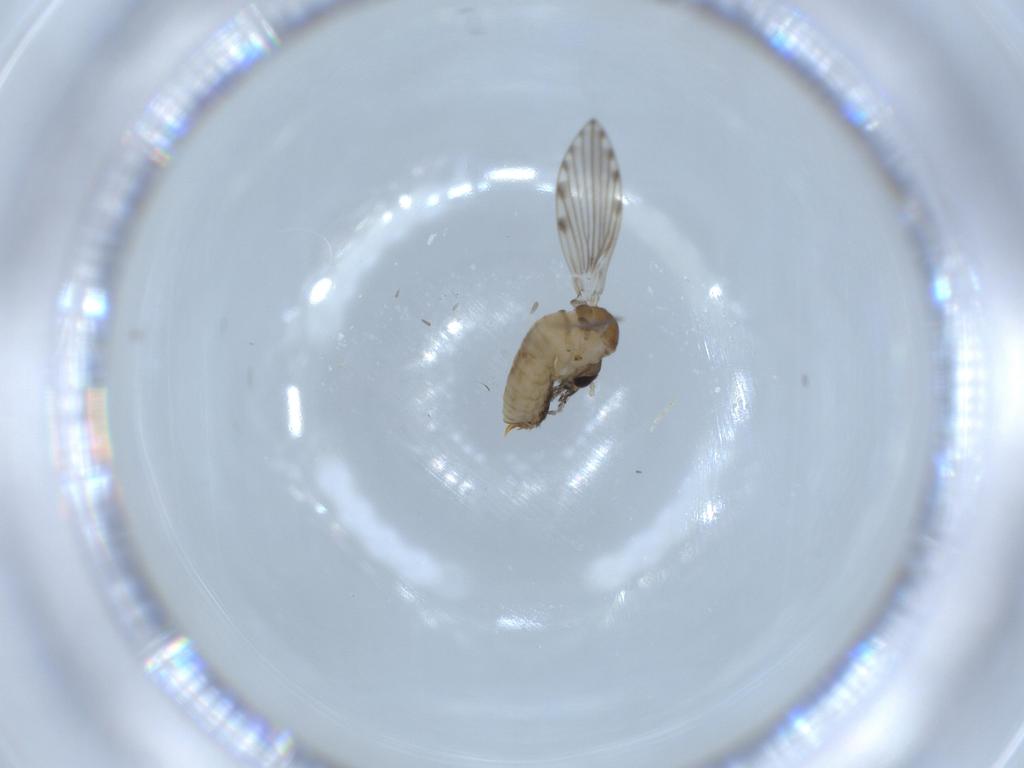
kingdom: Animalia
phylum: Arthropoda
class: Insecta
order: Diptera
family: Psychodidae
